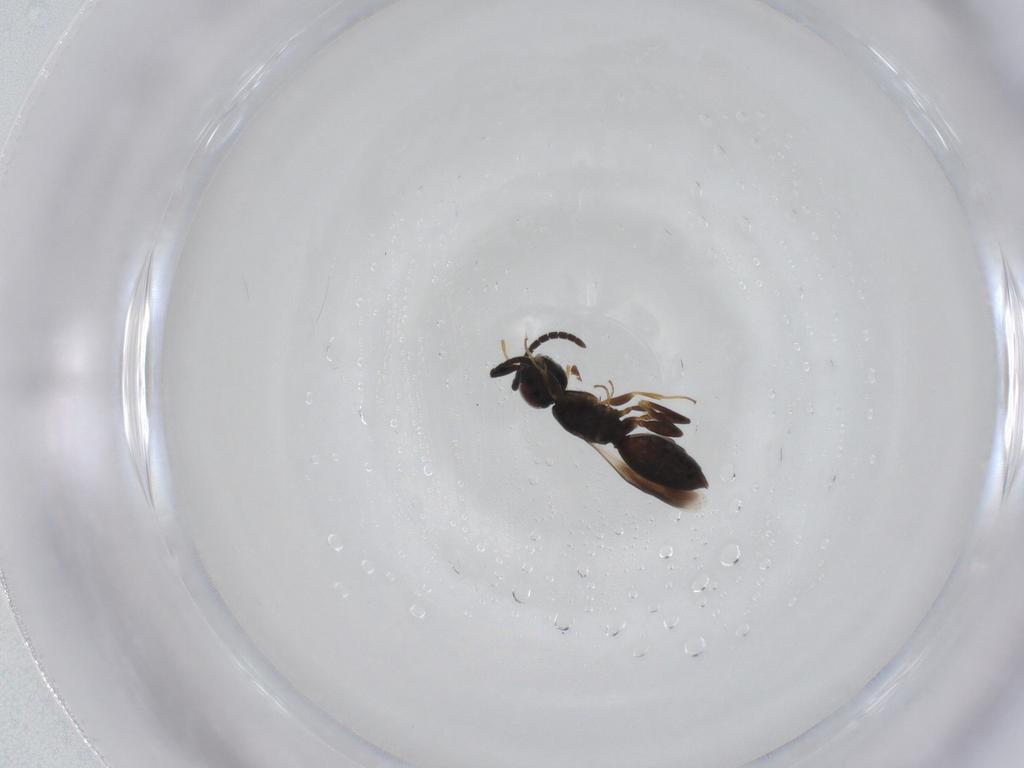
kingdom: Animalia
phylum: Arthropoda
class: Insecta
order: Hymenoptera
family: Megaspilidae
